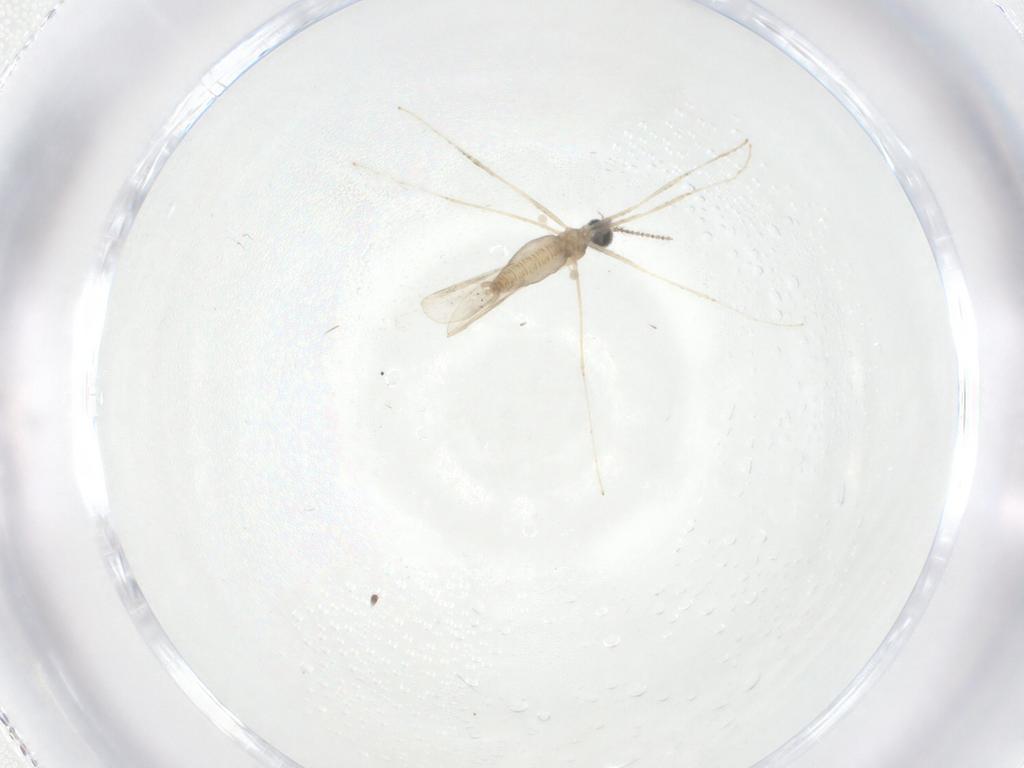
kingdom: Animalia
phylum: Arthropoda
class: Insecta
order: Diptera
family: Cecidomyiidae
